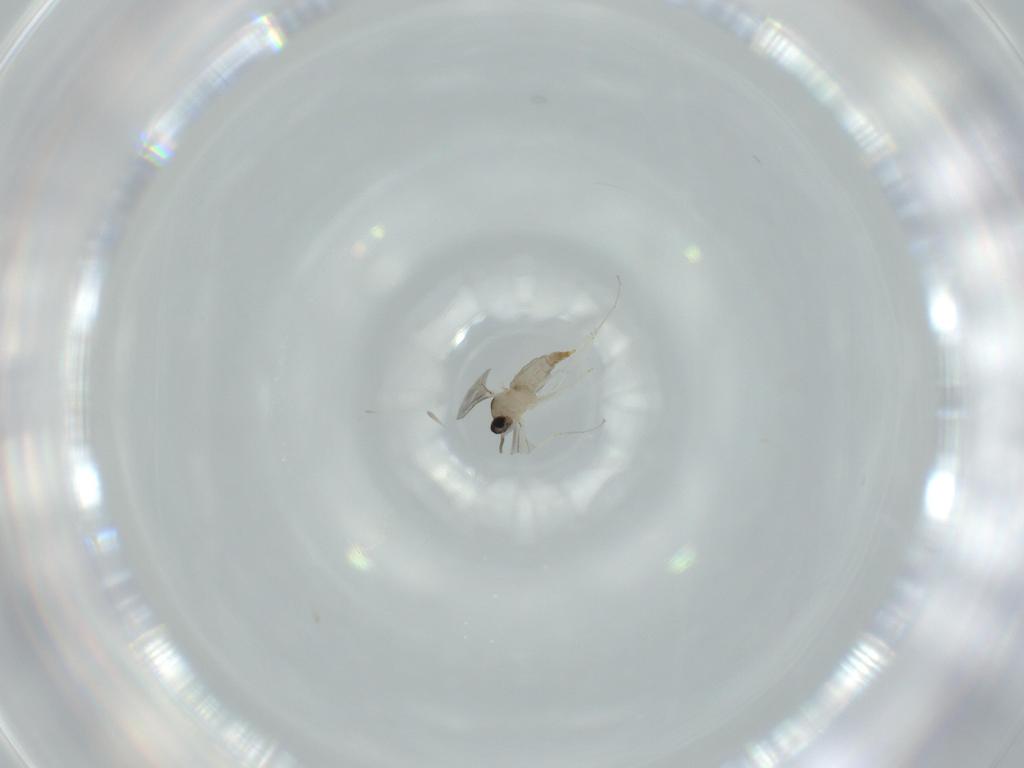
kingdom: Animalia
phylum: Arthropoda
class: Insecta
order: Diptera
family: Cecidomyiidae
